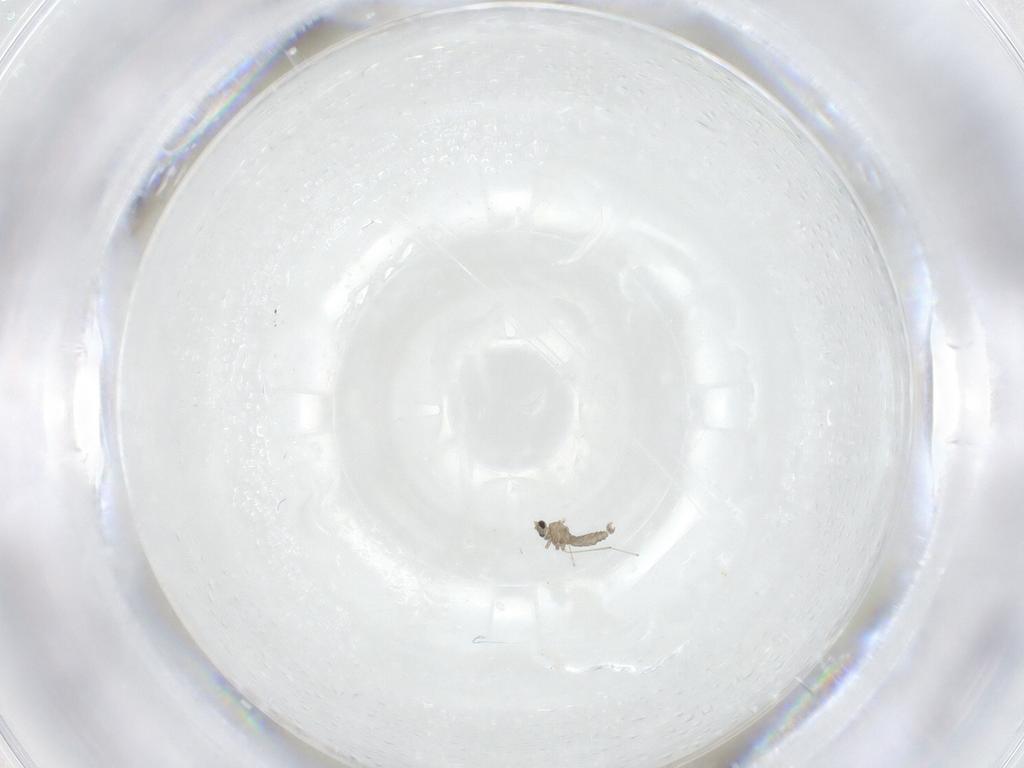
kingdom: Animalia
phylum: Arthropoda
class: Insecta
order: Diptera
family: Cecidomyiidae
